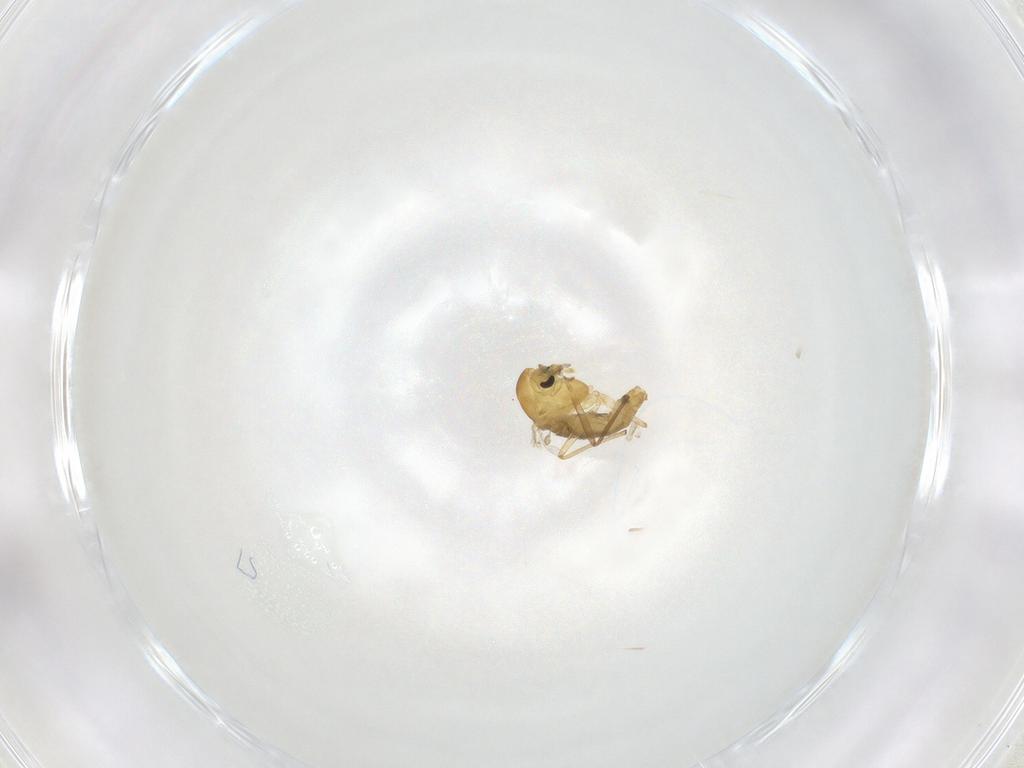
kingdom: Animalia
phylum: Arthropoda
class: Insecta
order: Diptera
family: Chironomidae
